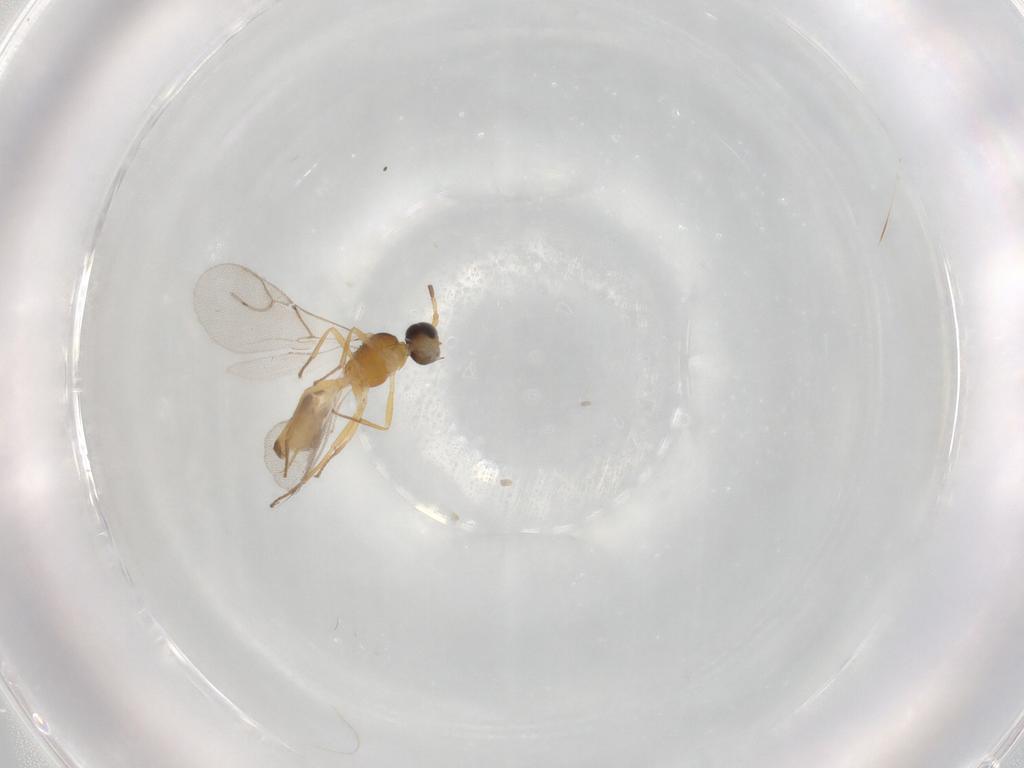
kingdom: Animalia
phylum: Arthropoda
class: Insecta
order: Hymenoptera
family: Braconidae
